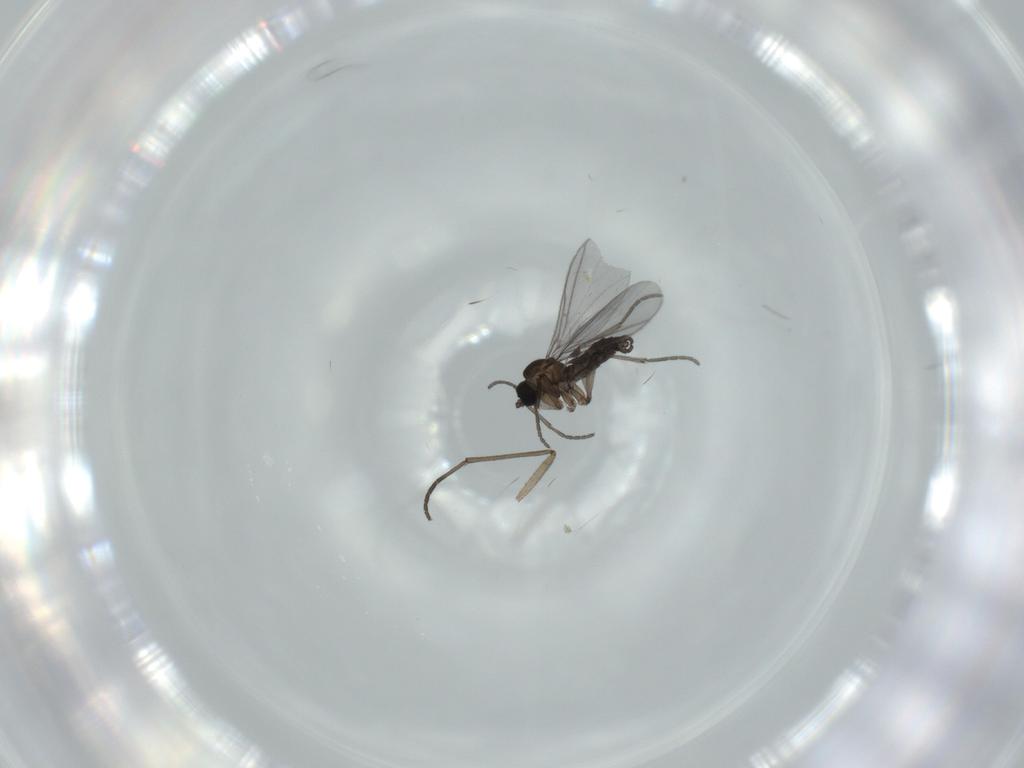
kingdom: Animalia
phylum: Arthropoda
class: Insecta
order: Diptera
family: Sciaridae
